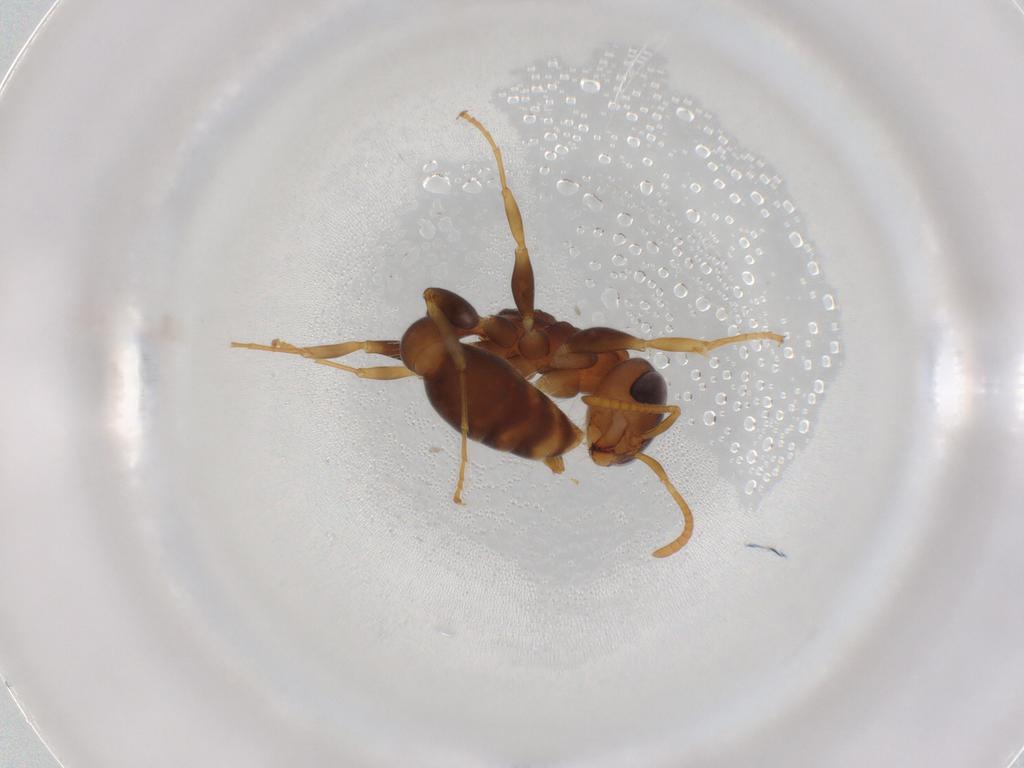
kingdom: Animalia
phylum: Arthropoda
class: Insecta
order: Hymenoptera
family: Formicidae
